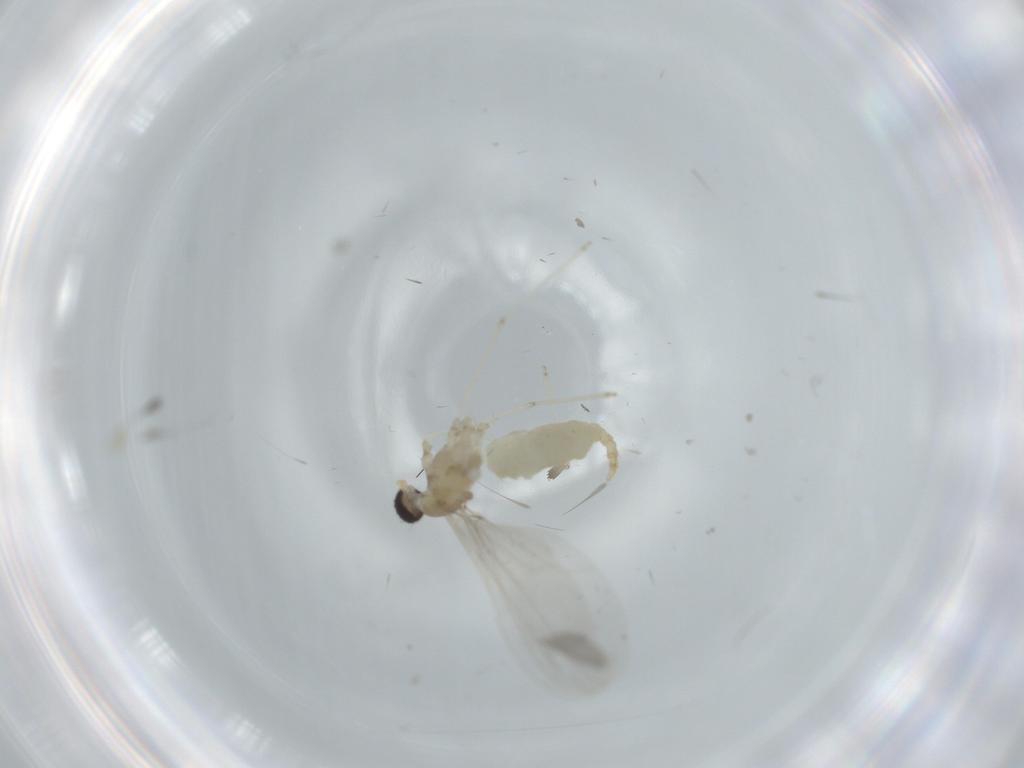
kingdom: Animalia
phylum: Arthropoda
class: Insecta
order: Diptera
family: Cecidomyiidae
